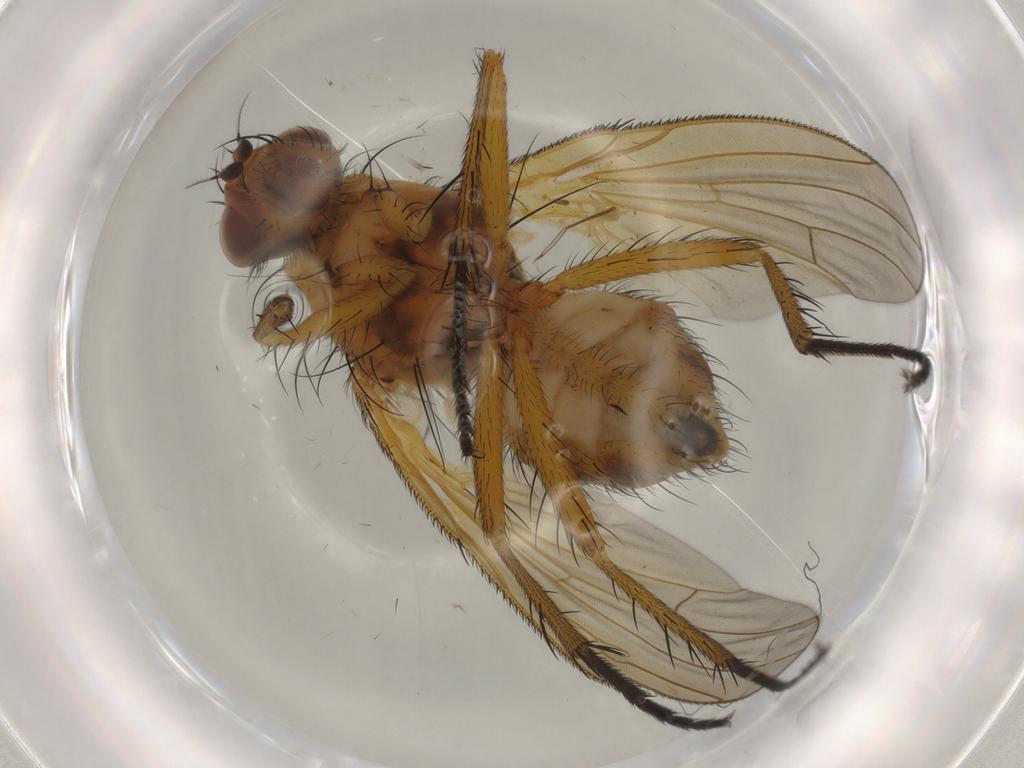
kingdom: Animalia
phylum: Arthropoda
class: Insecta
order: Diptera
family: Anthomyiidae
